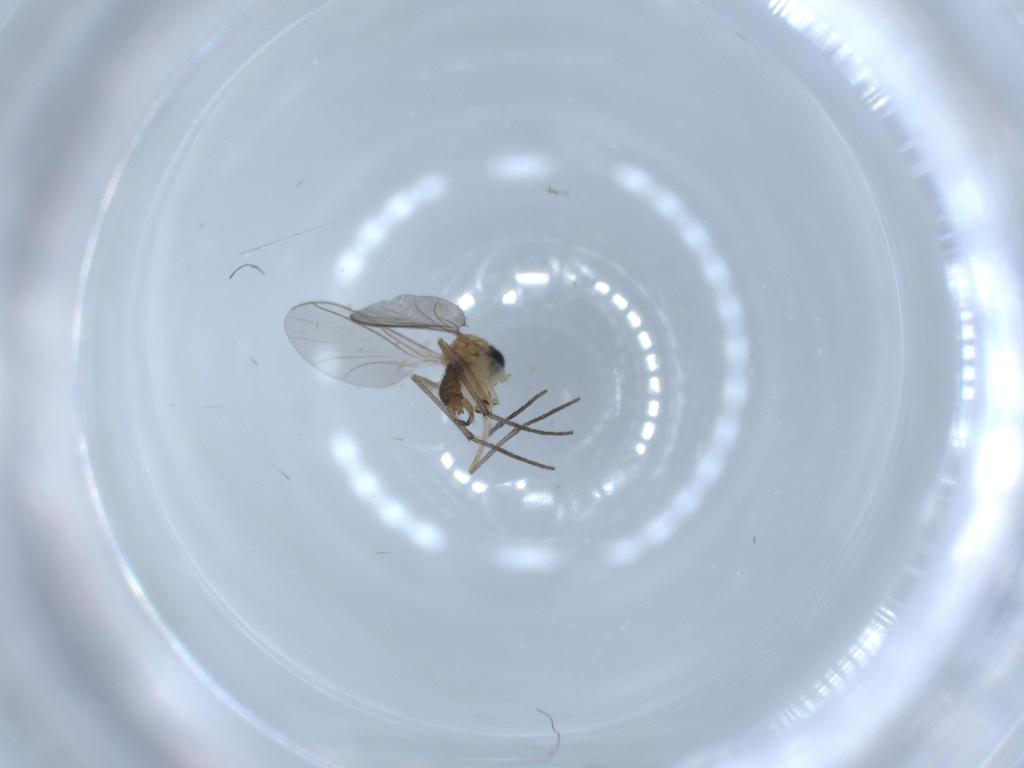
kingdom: Animalia
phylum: Arthropoda
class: Insecta
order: Diptera
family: Sciaridae
